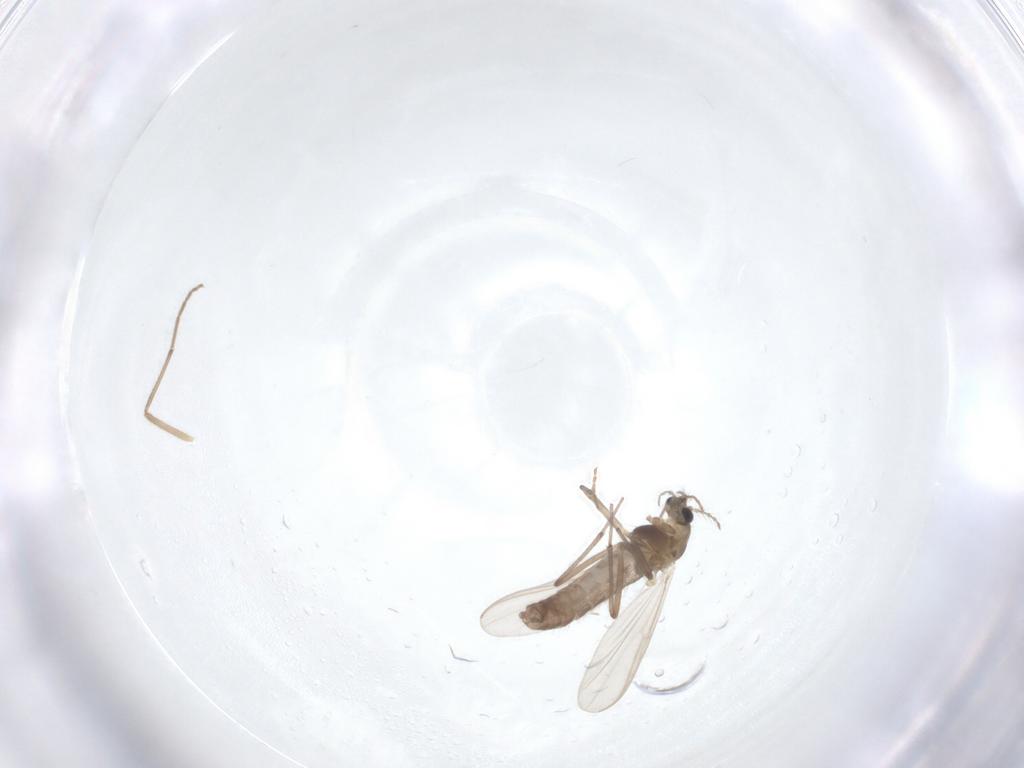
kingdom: Animalia
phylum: Arthropoda
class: Insecta
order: Diptera
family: Chironomidae
